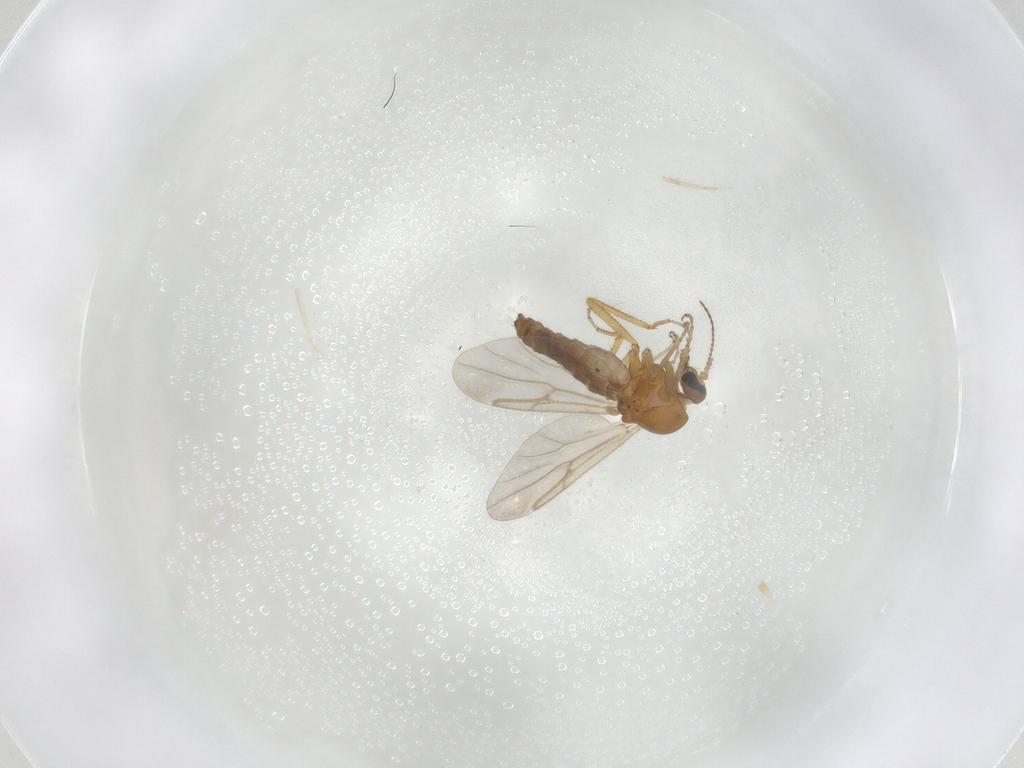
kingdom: Animalia
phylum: Arthropoda
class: Insecta
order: Diptera
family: Ceratopogonidae
